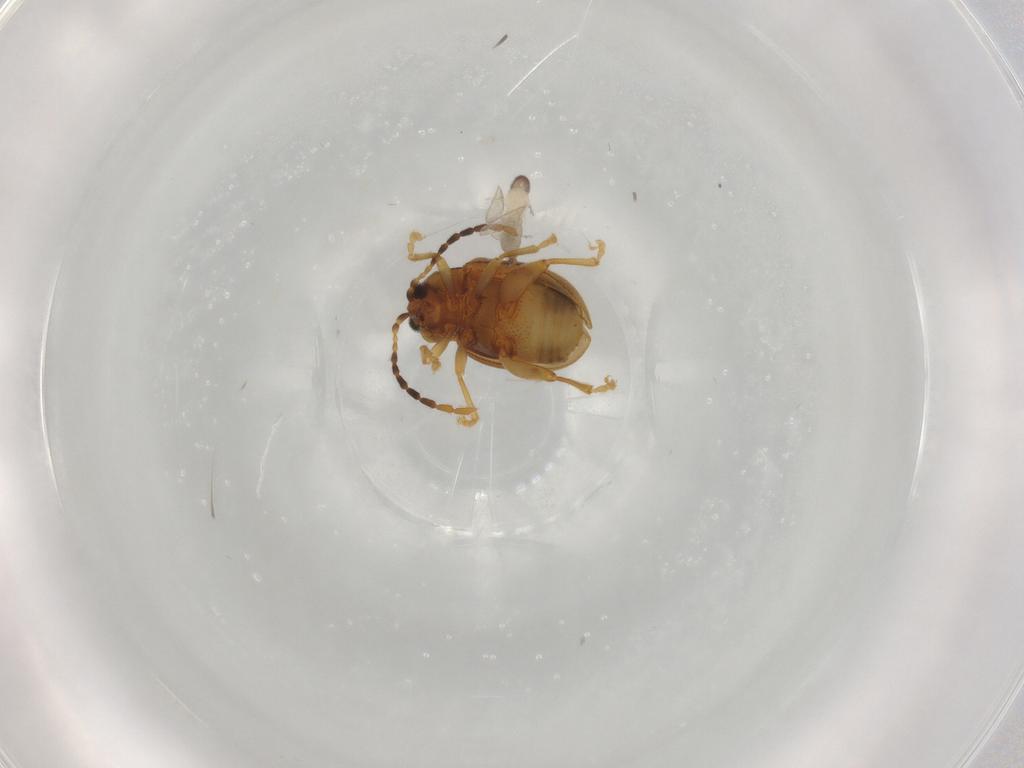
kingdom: Animalia
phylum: Arthropoda
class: Insecta
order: Coleoptera
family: Chrysomelidae
